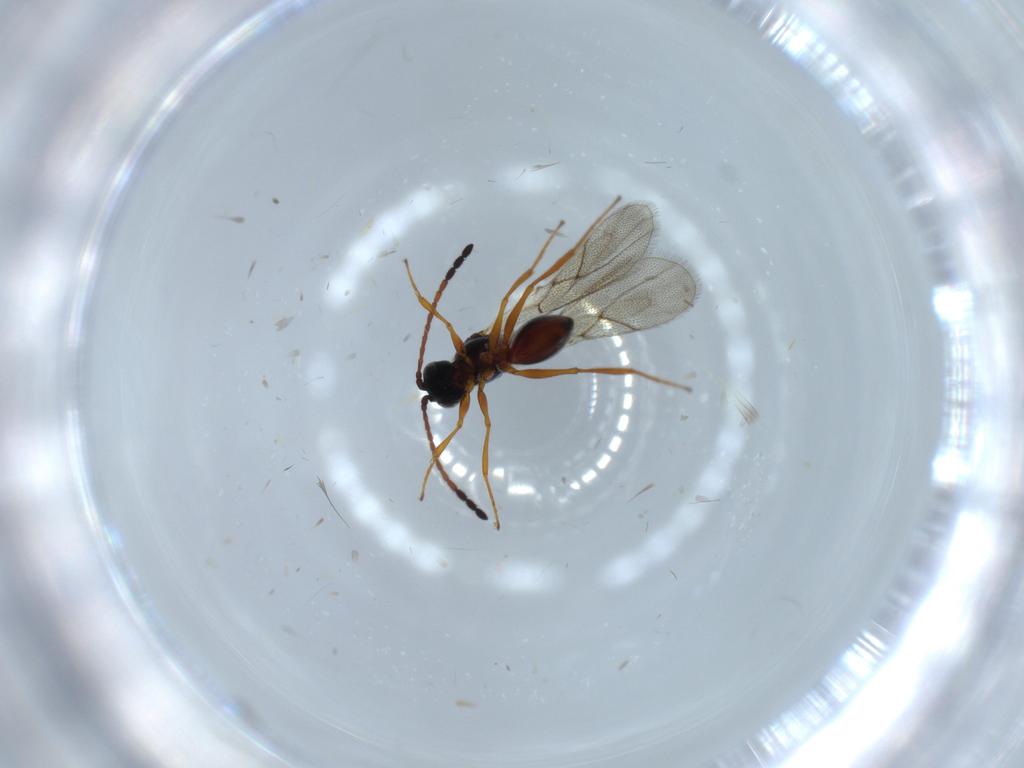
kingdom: Animalia
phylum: Arthropoda
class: Insecta
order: Hymenoptera
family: Figitidae
